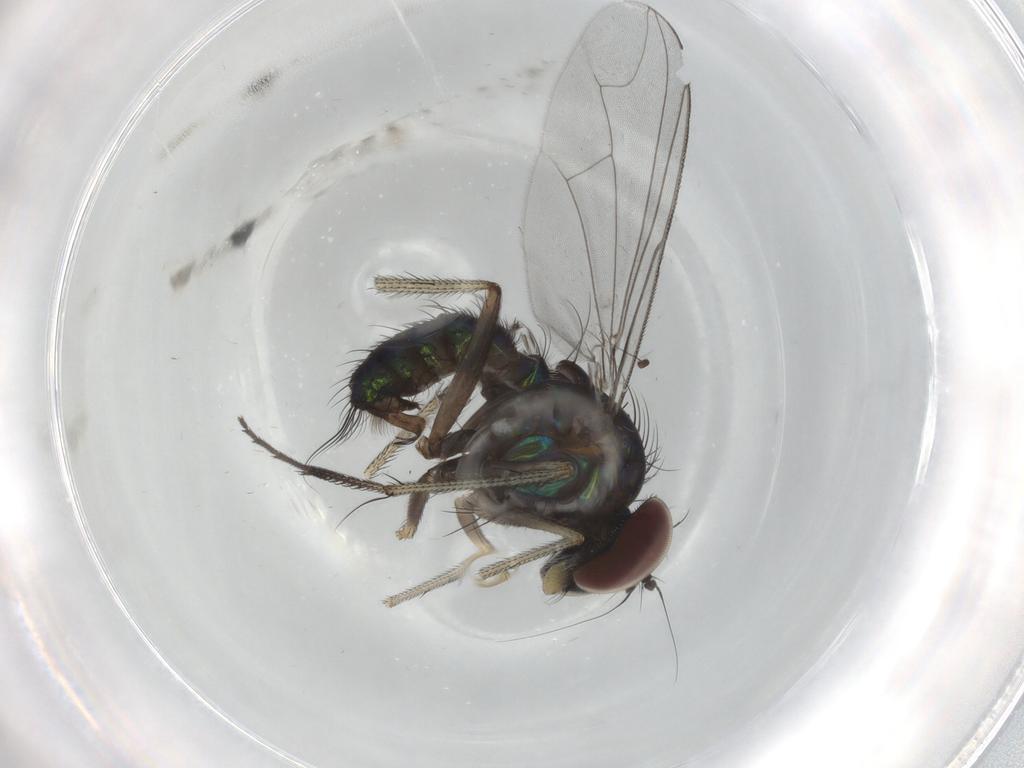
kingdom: Animalia
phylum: Arthropoda
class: Insecta
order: Diptera
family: Dolichopodidae
